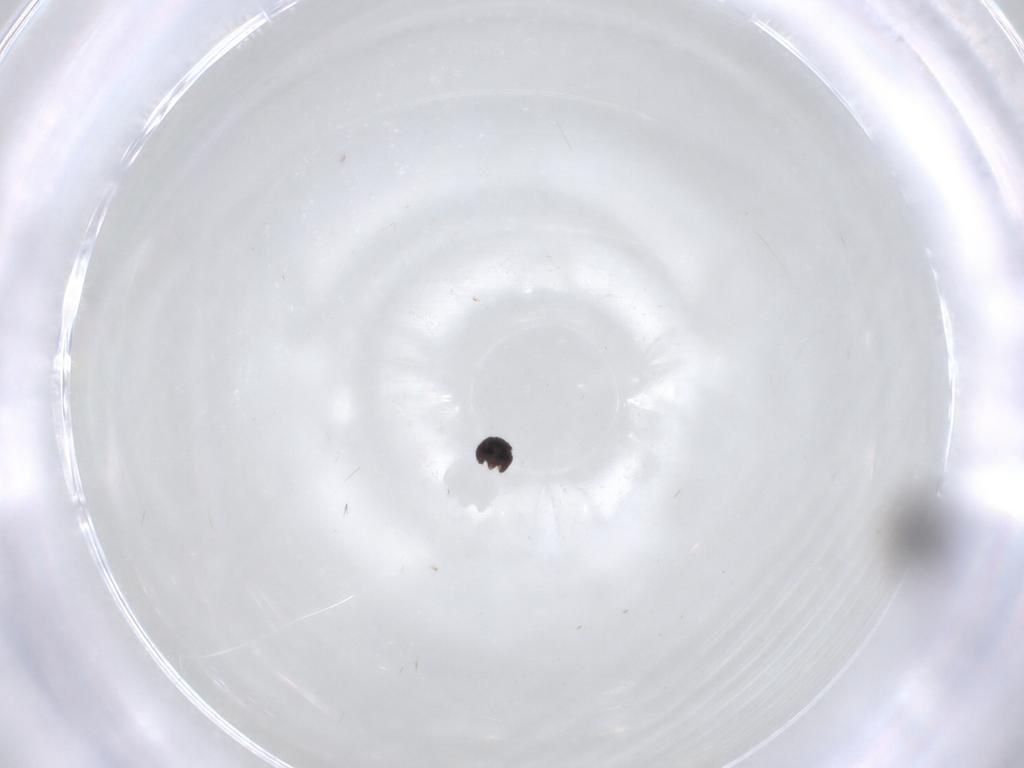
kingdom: Animalia
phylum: Arthropoda
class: Insecta
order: Diptera
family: Sphaeroceridae
